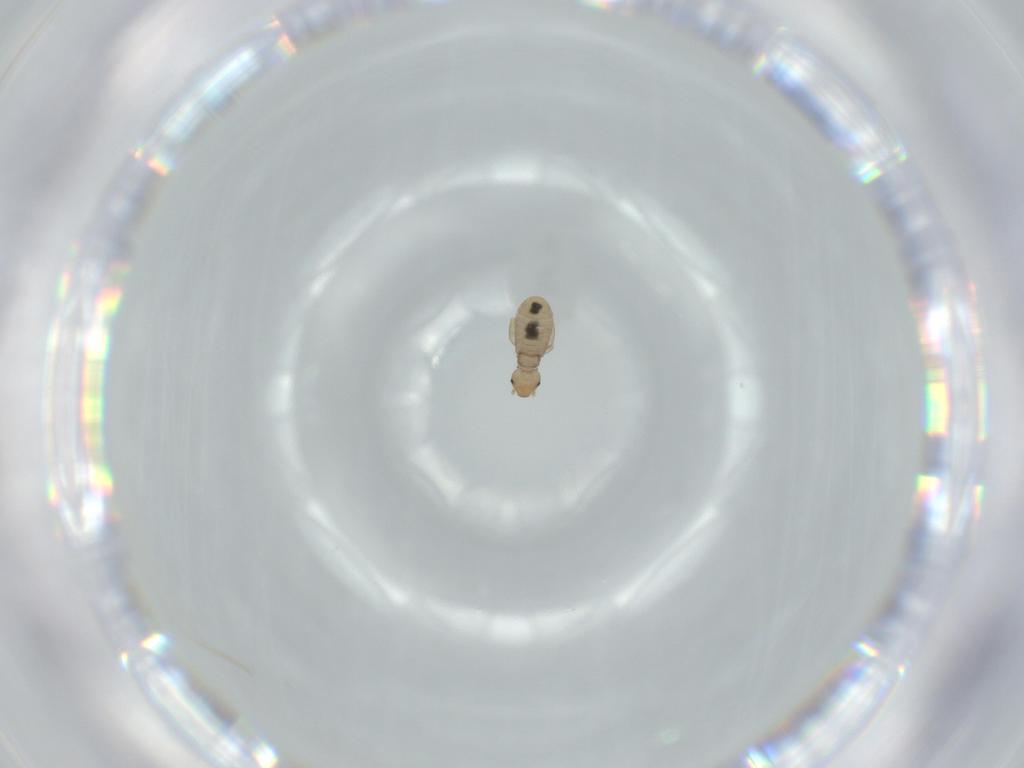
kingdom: Animalia
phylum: Arthropoda
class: Insecta
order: Psocodea
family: Liposcelididae
